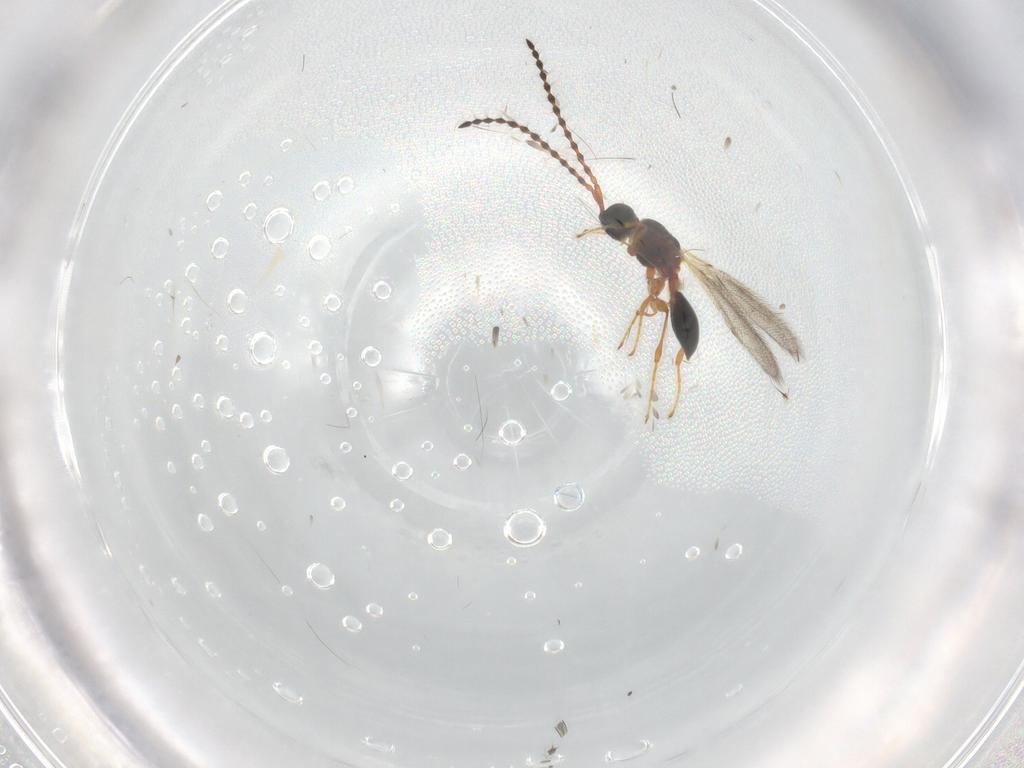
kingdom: Animalia
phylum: Arthropoda
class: Insecta
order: Hymenoptera
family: Diapriidae
